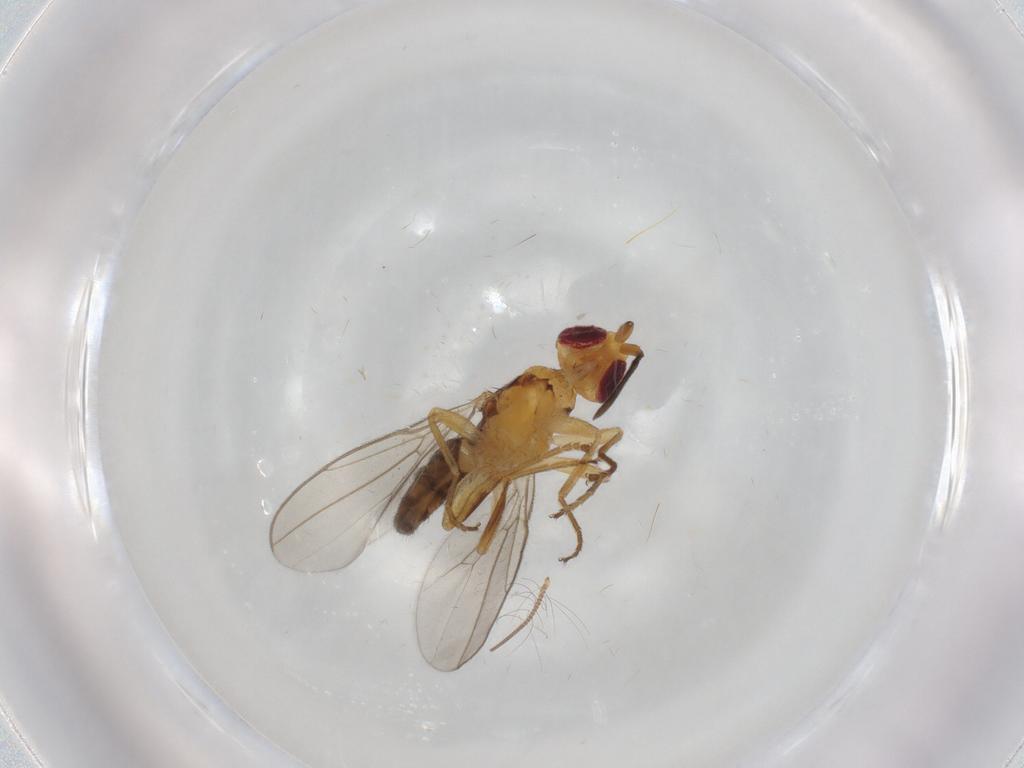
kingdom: Animalia
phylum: Arthropoda
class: Insecta
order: Diptera
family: Chloropidae
